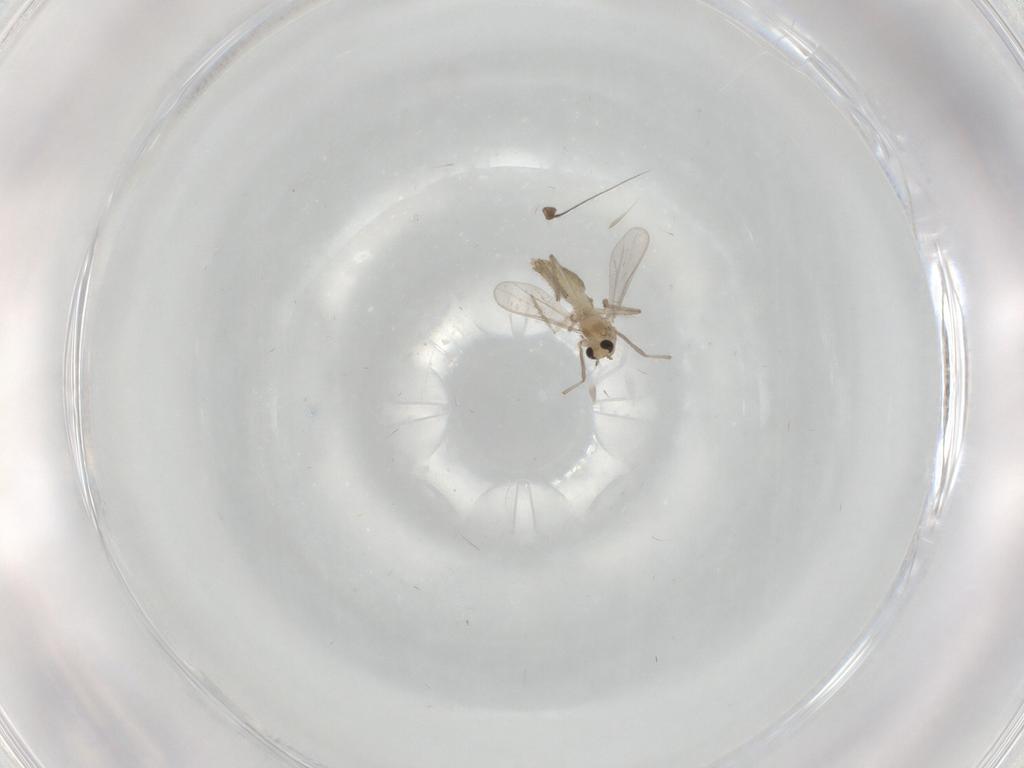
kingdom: Animalia
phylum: Arthropoda
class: Insecta
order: Diptera
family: Chironomidae
